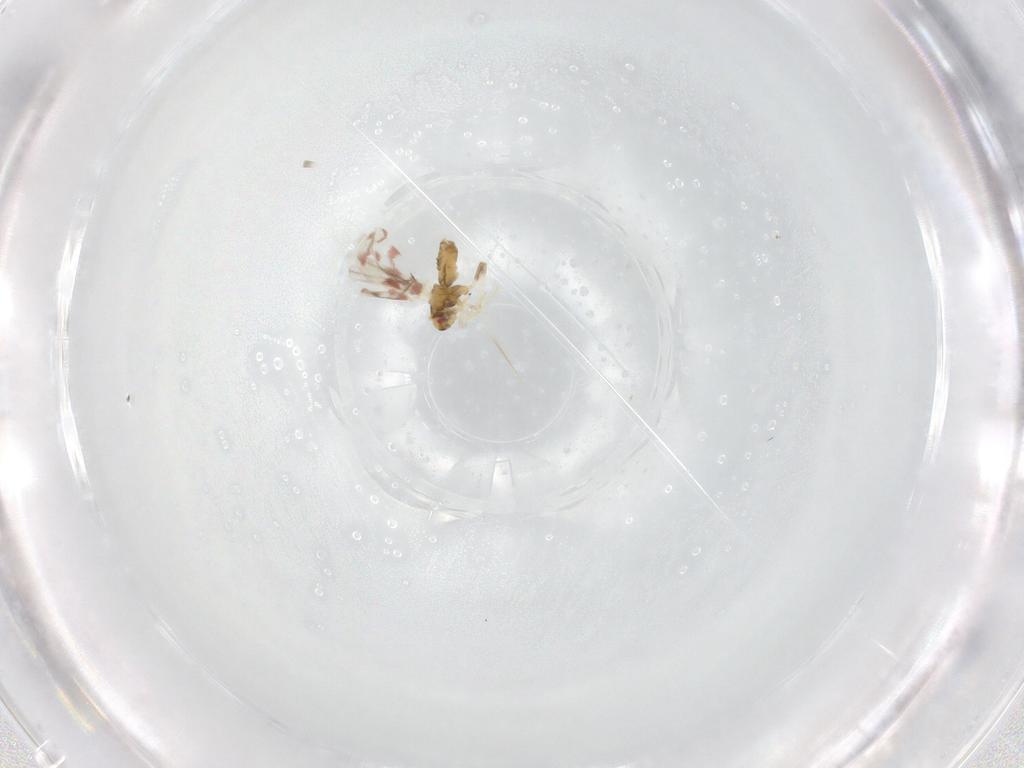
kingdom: Animalia
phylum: Arthropoda
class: Insecta
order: Hemiptera
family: Aleyrodidae
